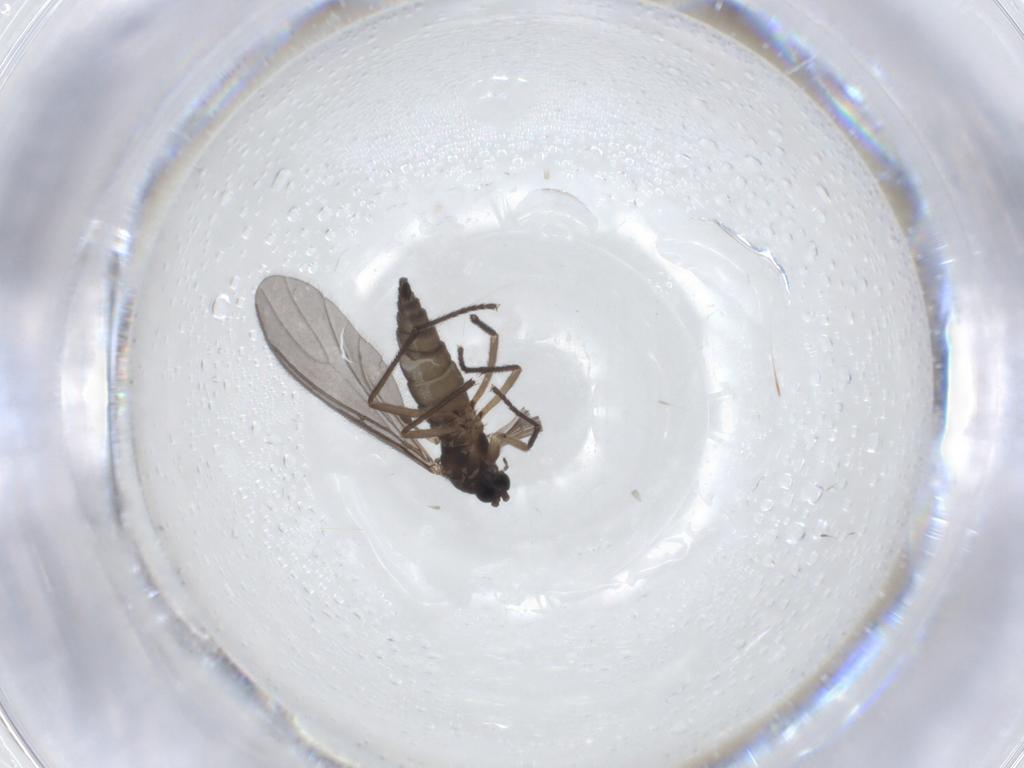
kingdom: Animalia
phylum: Arthropoda
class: Insecta
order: Diptera
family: Sciaridae
